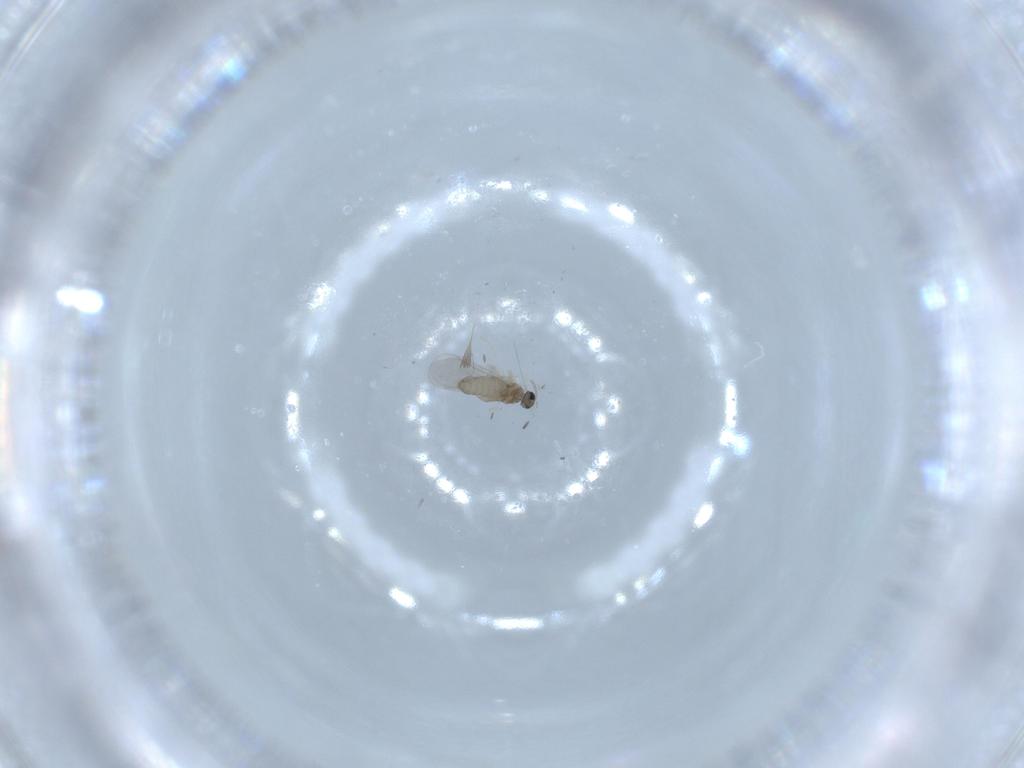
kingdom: Animalia
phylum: Arthropoda
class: Insecta
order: Diptera
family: Cecidomyiidae
